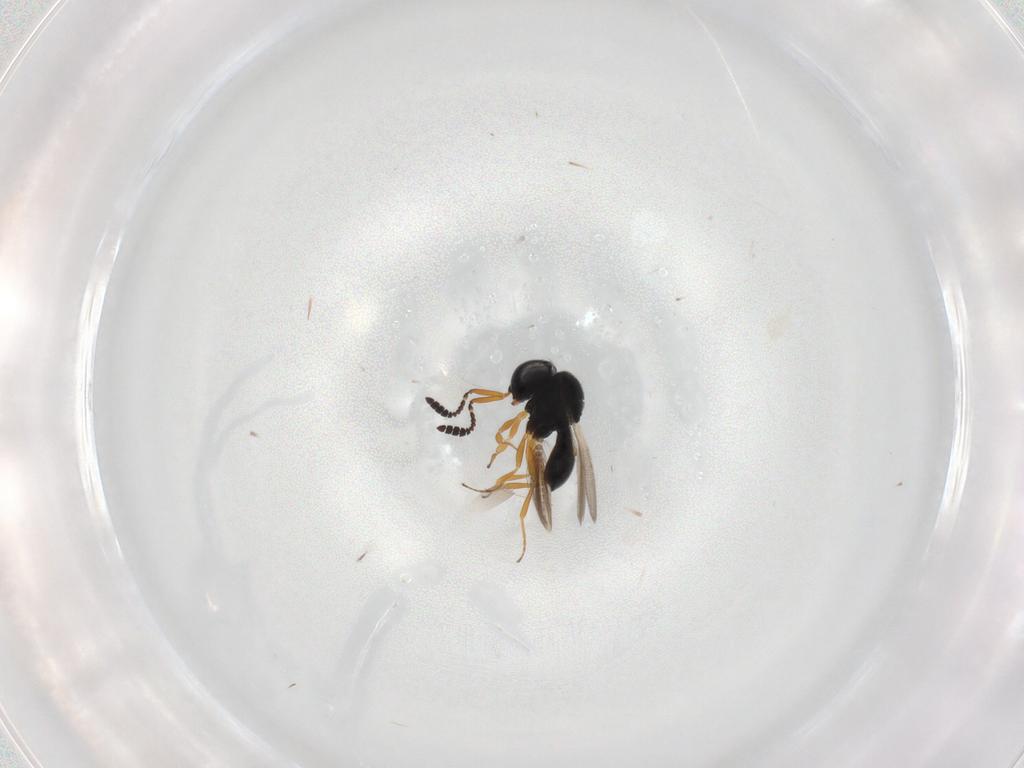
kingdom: Animalia
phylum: Arthropoda
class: Insecta
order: Hymenoptera
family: Scelionidae
